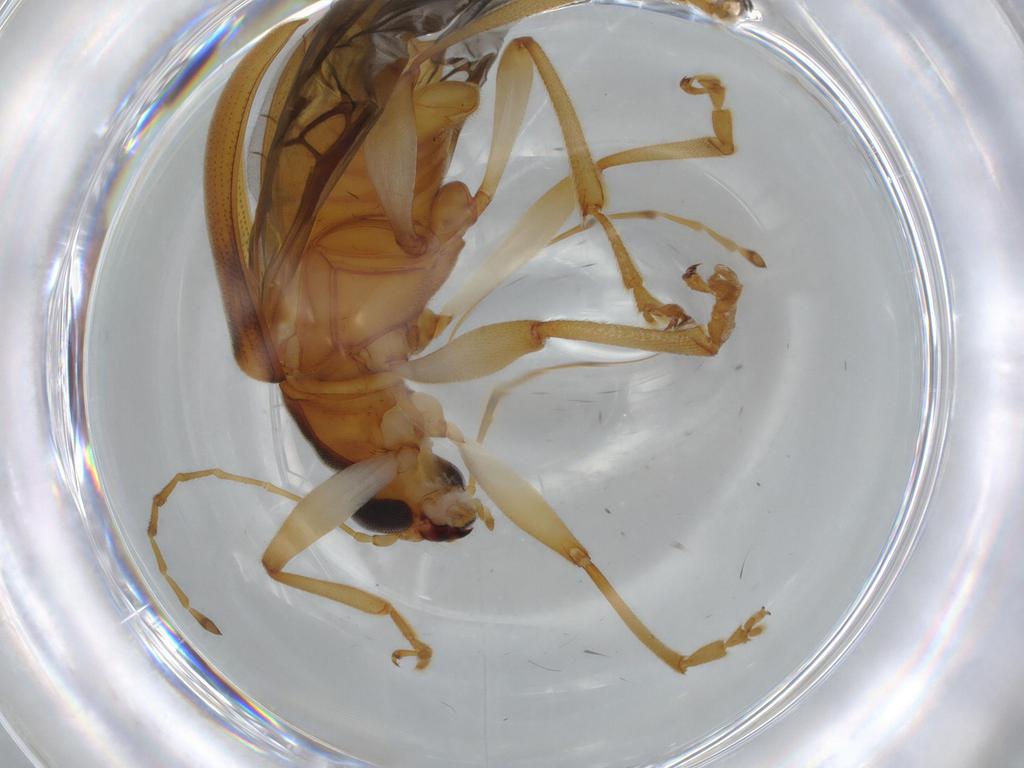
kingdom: Animalia
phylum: Arthropoda
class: Insecta
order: Coleoptera
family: Chrysomelidae
